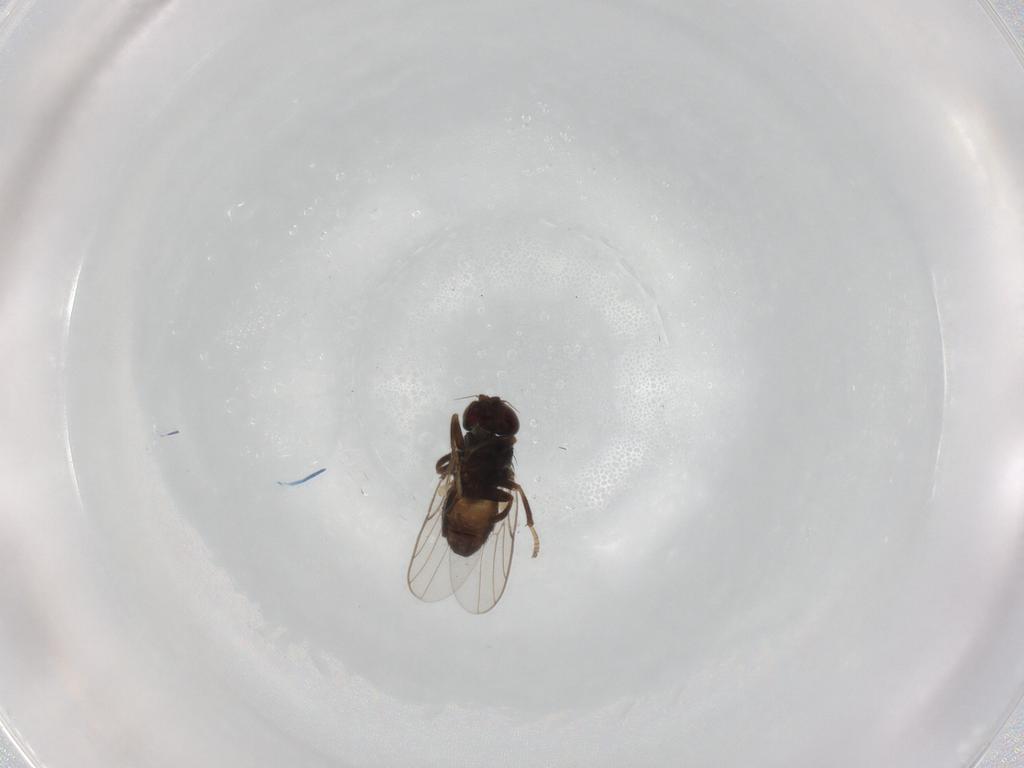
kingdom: Animalia
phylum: Arthropoda
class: Insecta
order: Diptera
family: Chloropidae
